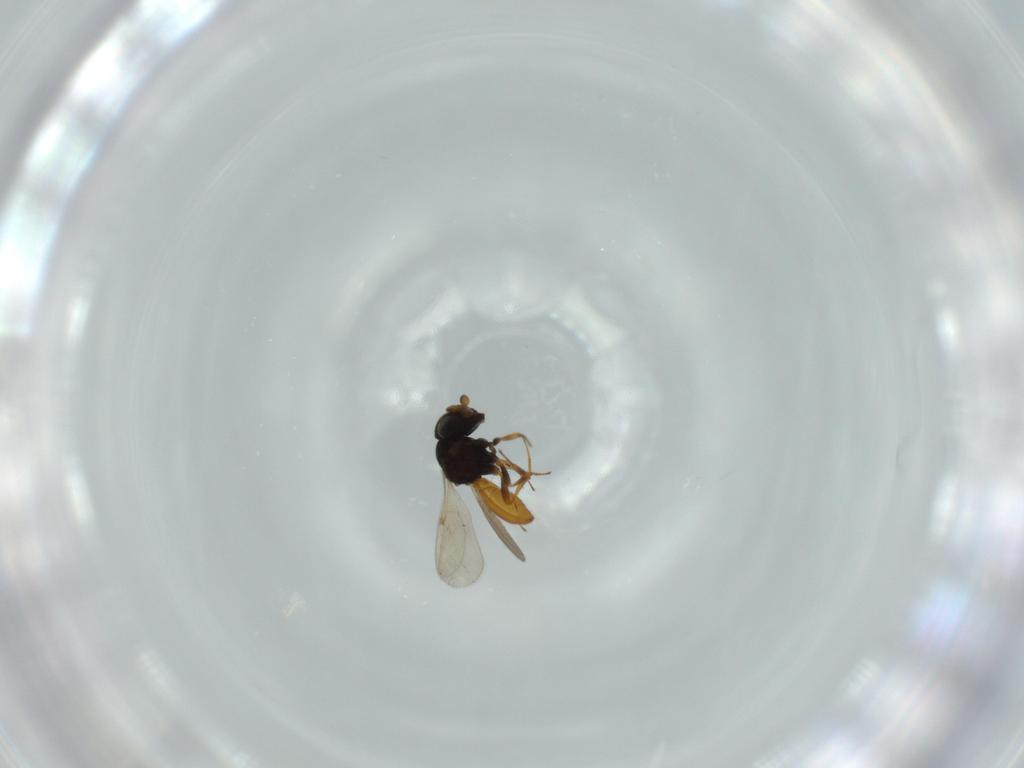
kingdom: Animalia
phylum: Arthropoda
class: Insecta
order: Hymenoptera
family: Scelionidae
